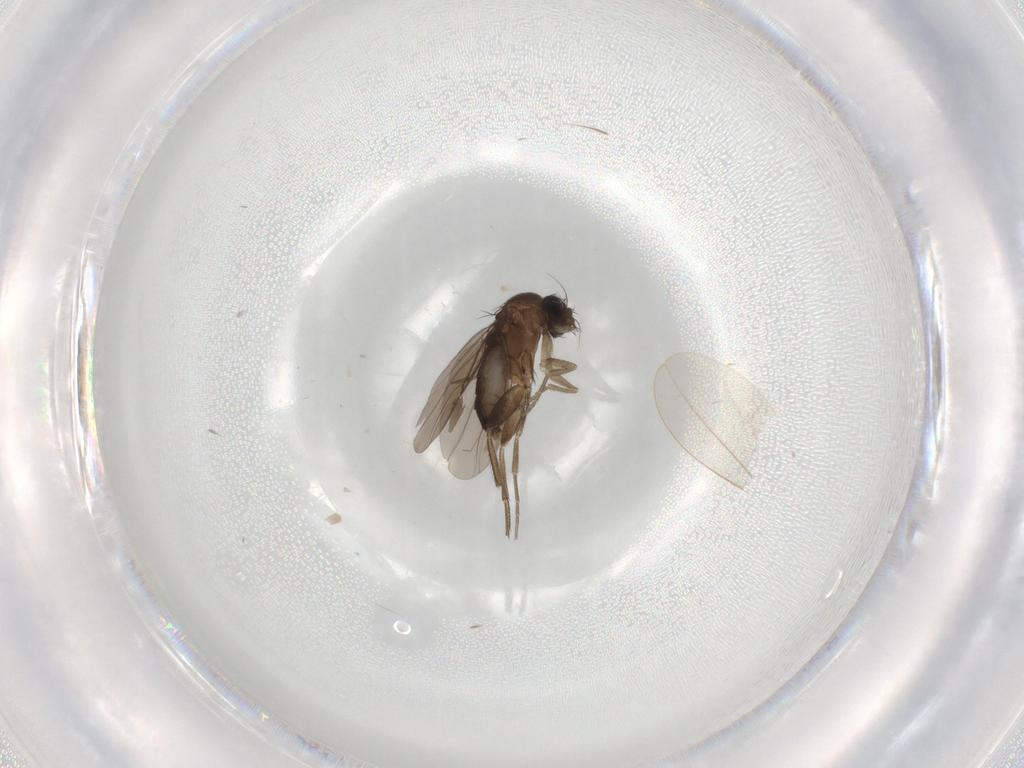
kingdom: Animalia
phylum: Arthropoda
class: Insecta
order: Diptera
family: Phoridae
